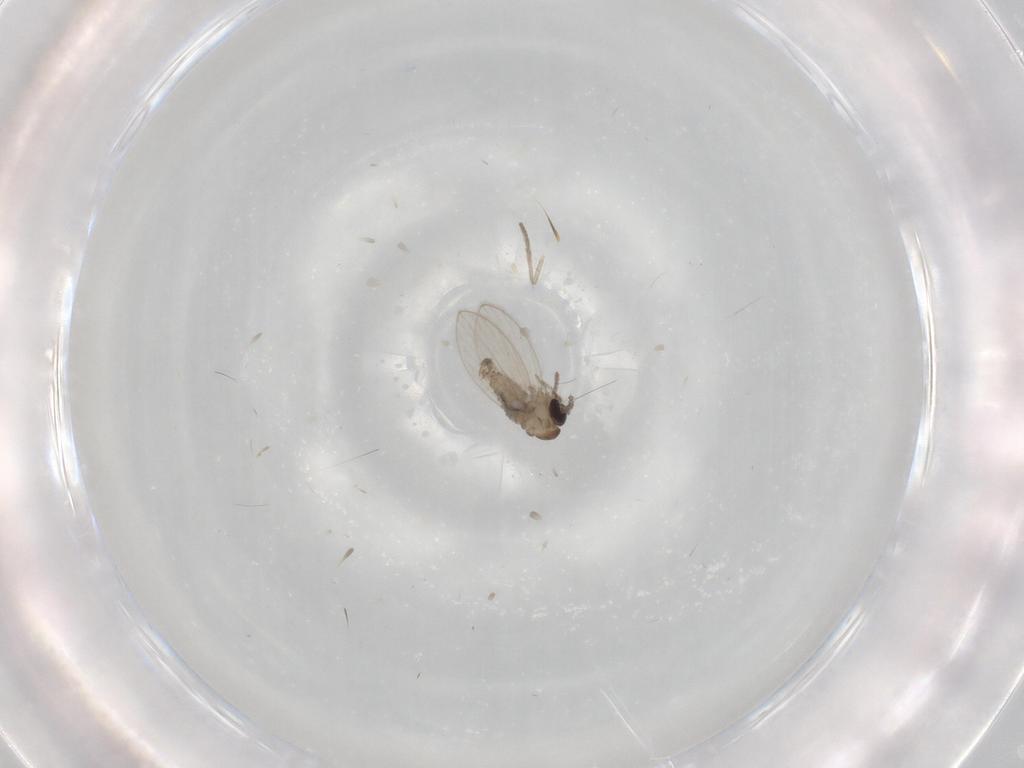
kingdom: Animalia
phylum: Arthropoda
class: Insecta
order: Diptera
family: Psychodidae
